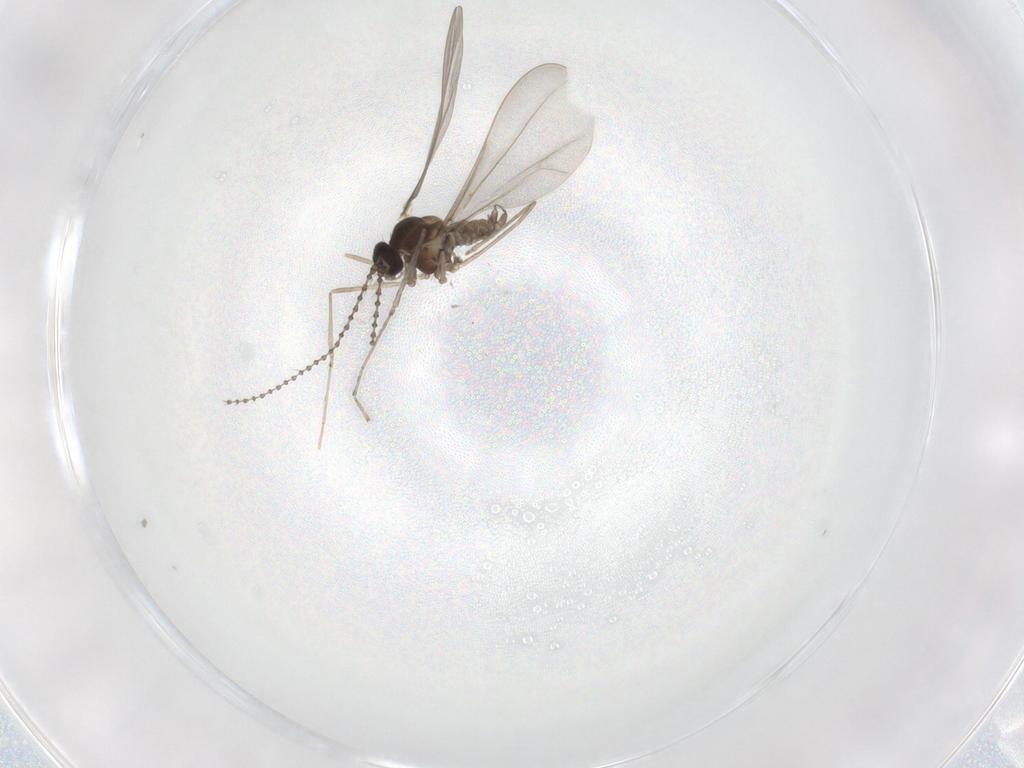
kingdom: Animalia
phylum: Arthropoda
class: Insecta
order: Diptera
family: Cecidomyiidae
